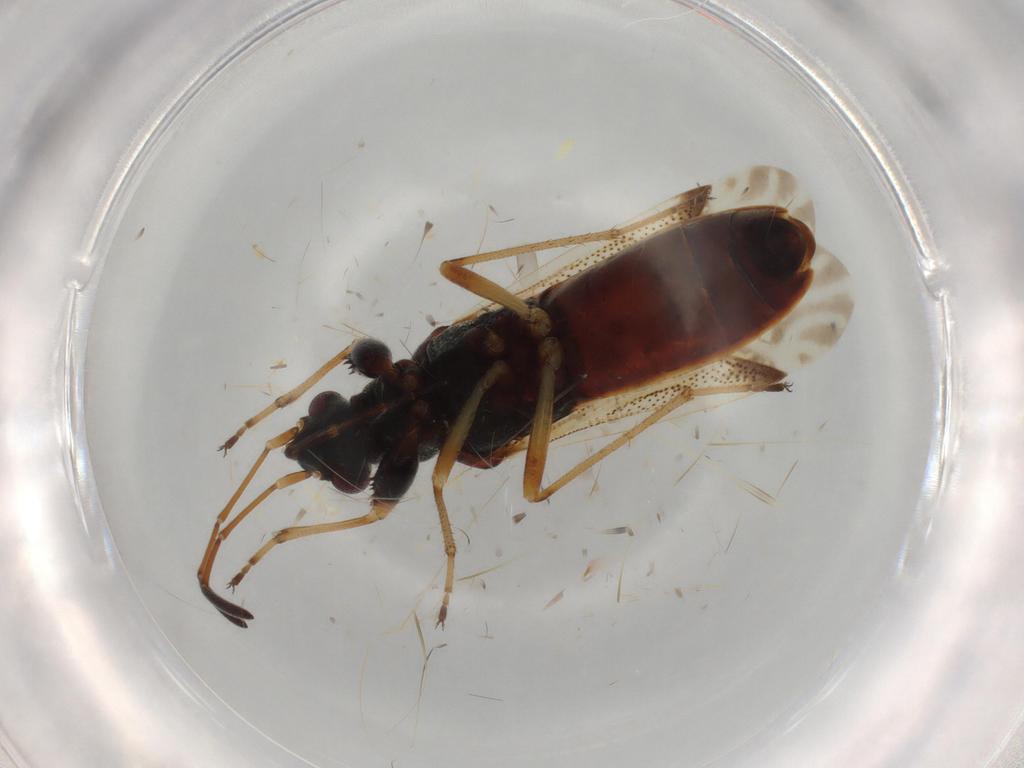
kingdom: Animalia
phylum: Arthropoda
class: Insecta
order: Hemiptera
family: Rhyparochromidae
